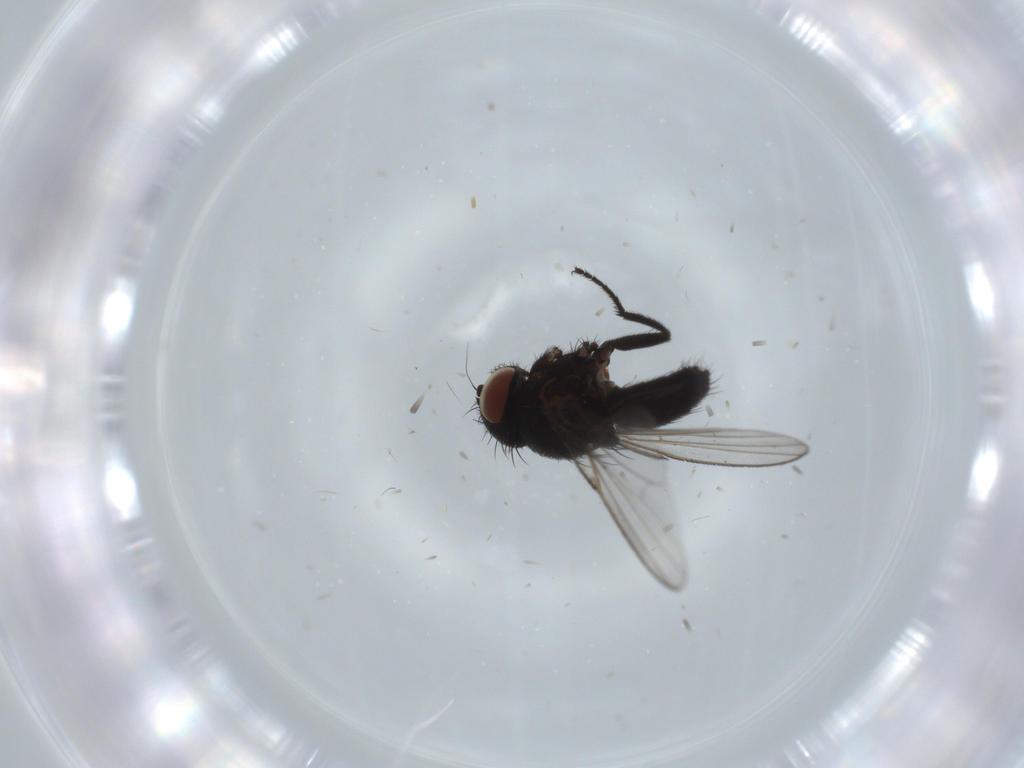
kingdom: Animalia
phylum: Arthropoda
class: Insecta
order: Diptera
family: Milichiidae
